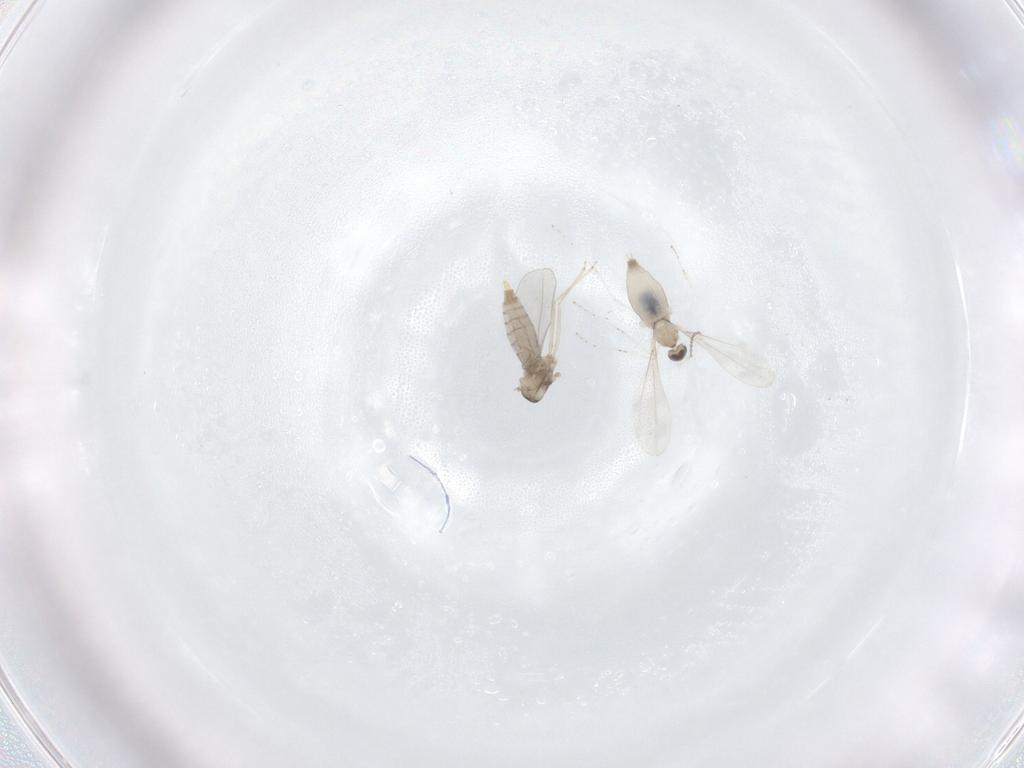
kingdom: Animalia
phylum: Arthropoda
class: Insecta
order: Diptera
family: Cecidomyiidae
